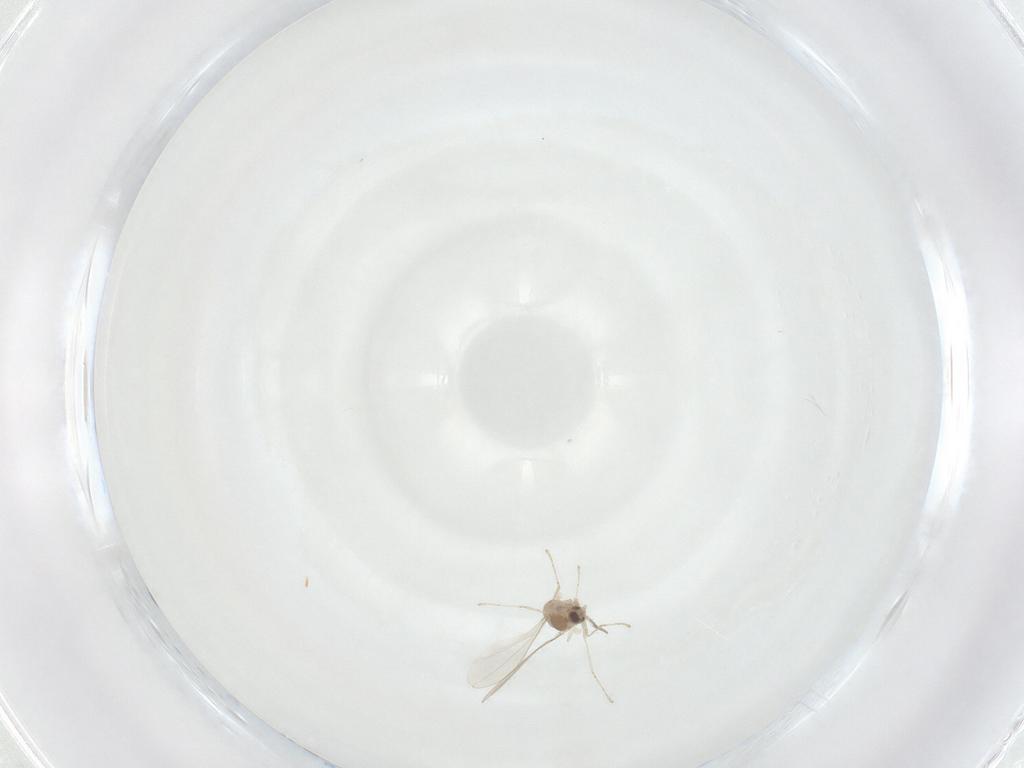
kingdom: Animalia
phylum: Arthropoda
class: Insecta
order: Diptera
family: Cecidomyiidae
